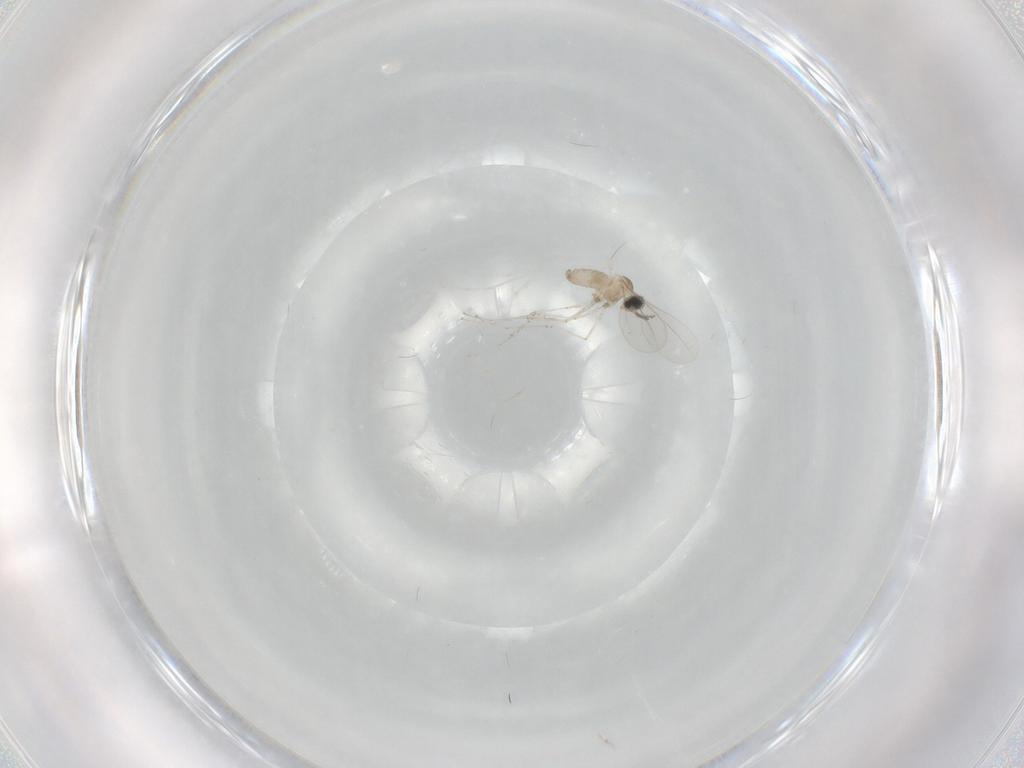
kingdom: Animalia
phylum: Arthropoda
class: Insecta
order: Diptera
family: Cecidomyiidae
